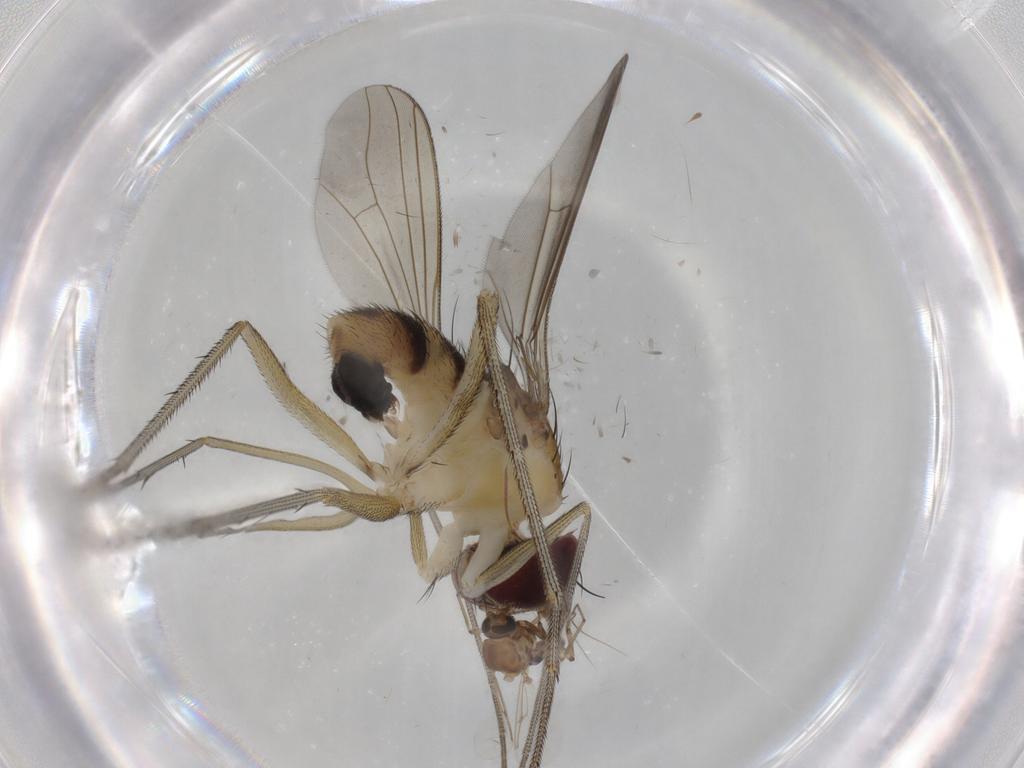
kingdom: Animalia
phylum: Arthropoda
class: Insecta
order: Diptera
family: Ceratopogonidae
